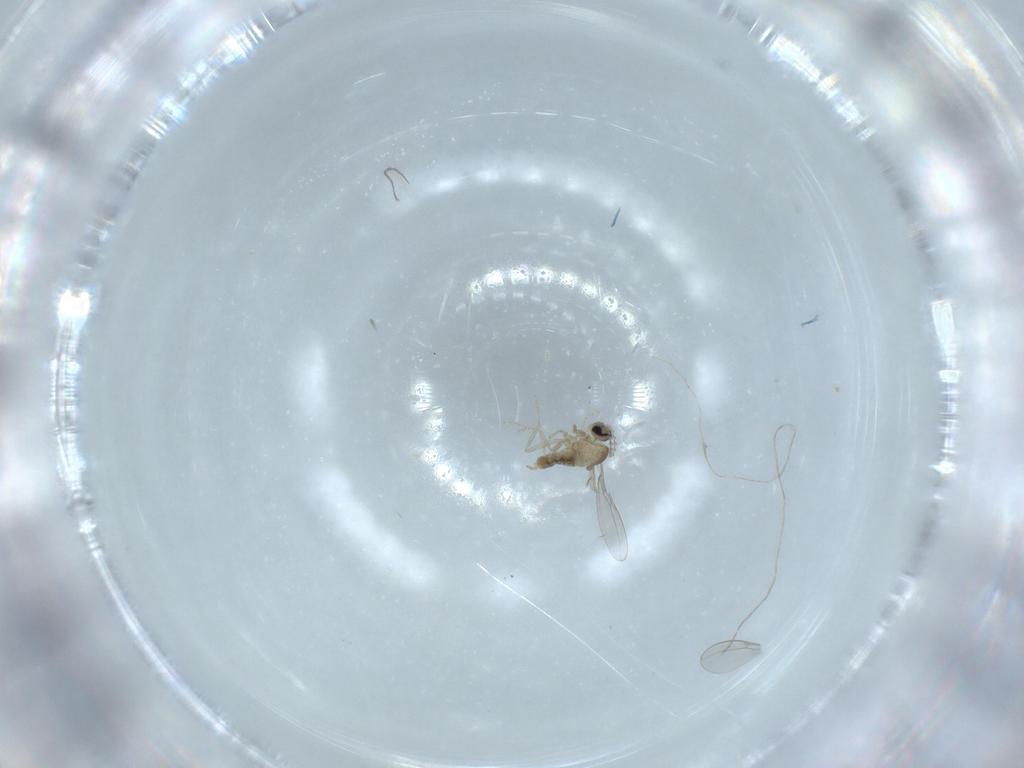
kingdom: Animalia
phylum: Arthropoda
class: Insecta
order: Diptera
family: Cecidomyiidae
